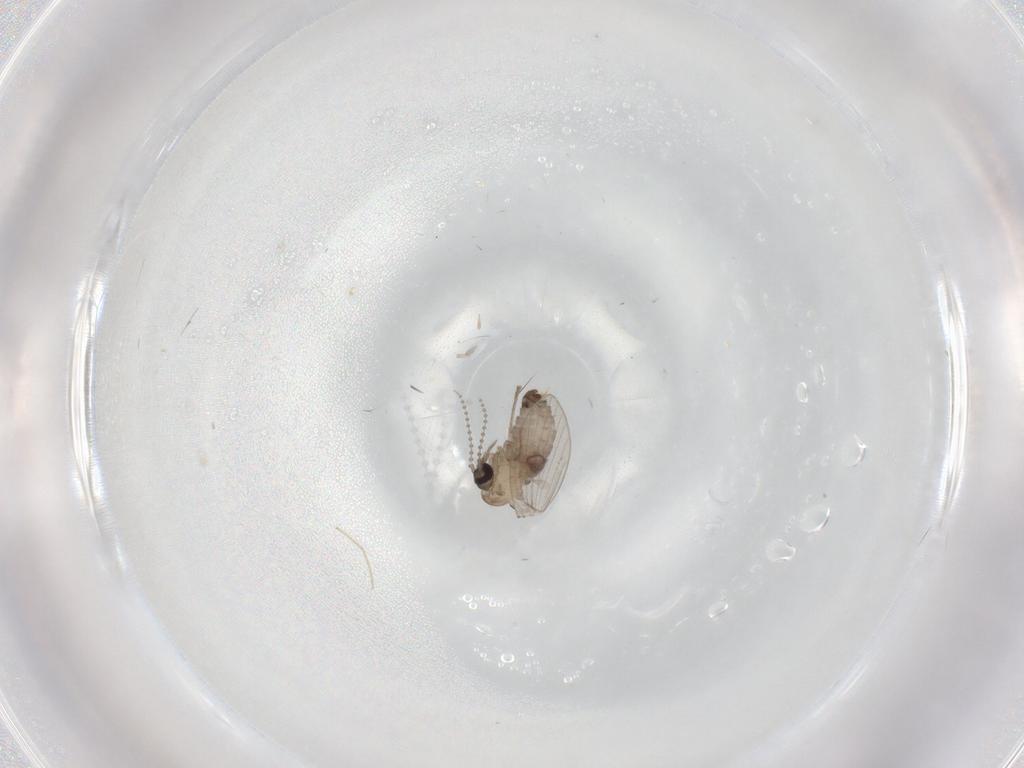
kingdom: Animalia
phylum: Arthropoda
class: Insecta
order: Diptera
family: Psychodidae
